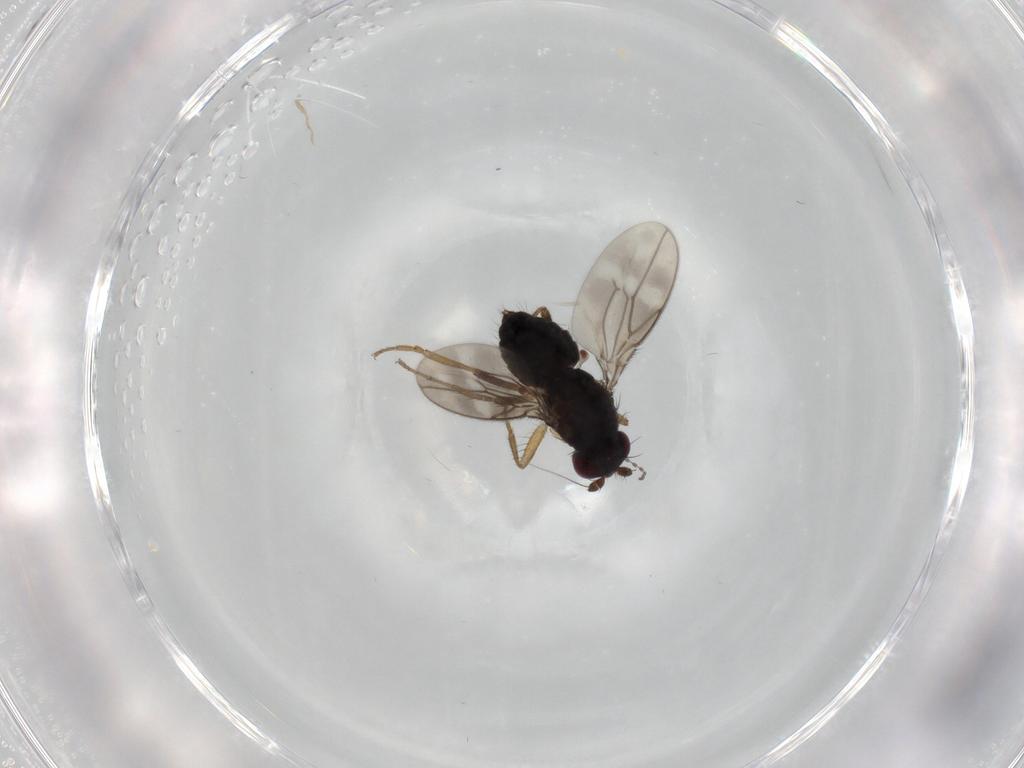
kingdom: Animalia
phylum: Arthropoda
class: Insecta
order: Diptera
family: Sphaeroceridae
